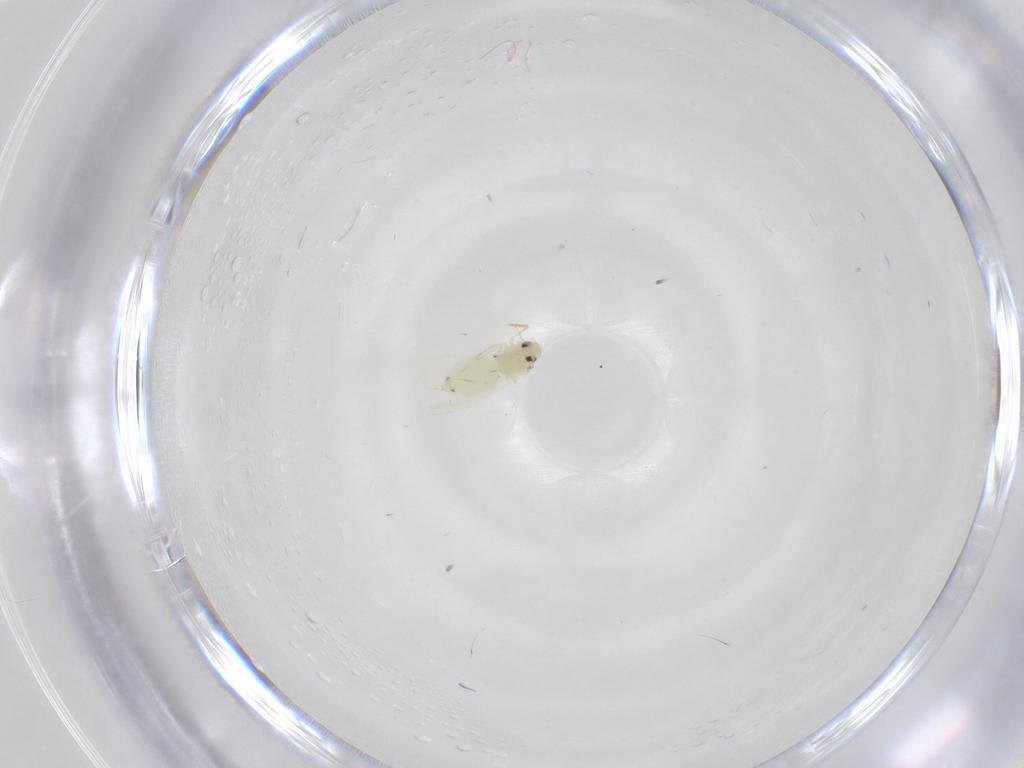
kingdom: Animalia
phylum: Arthropoda
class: Insecta
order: Hemiptera
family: Aleyrodidae
